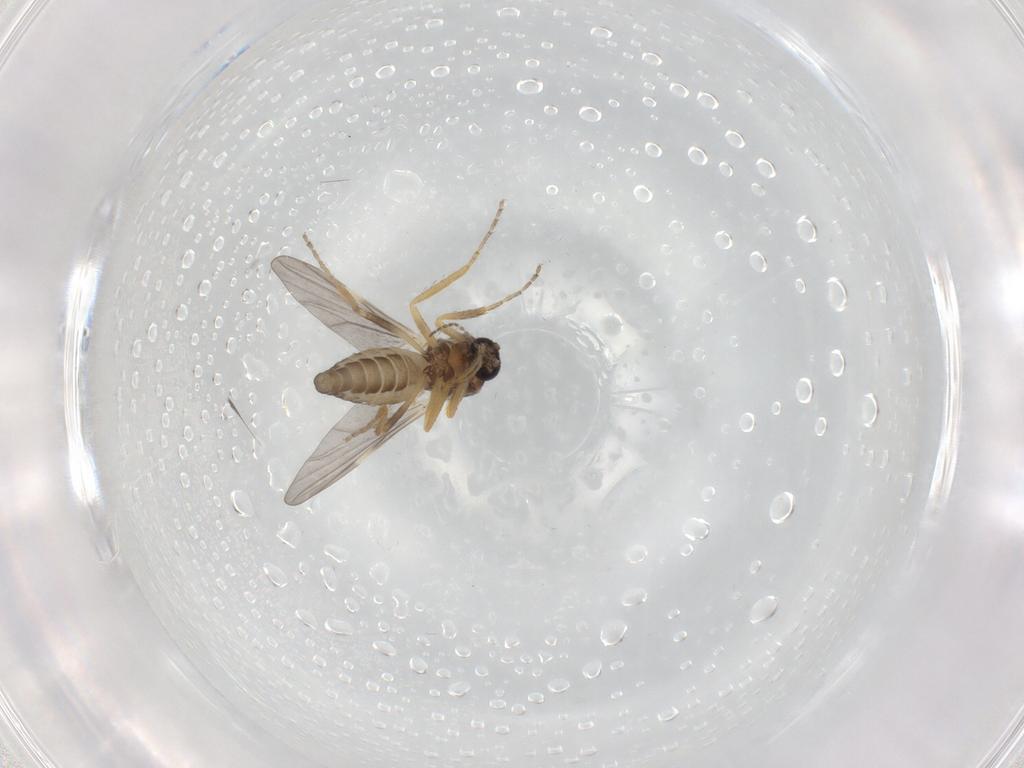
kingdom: Animalia
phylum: Arthropoda
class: Insecta
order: Diptera
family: Ceratopogonidae
